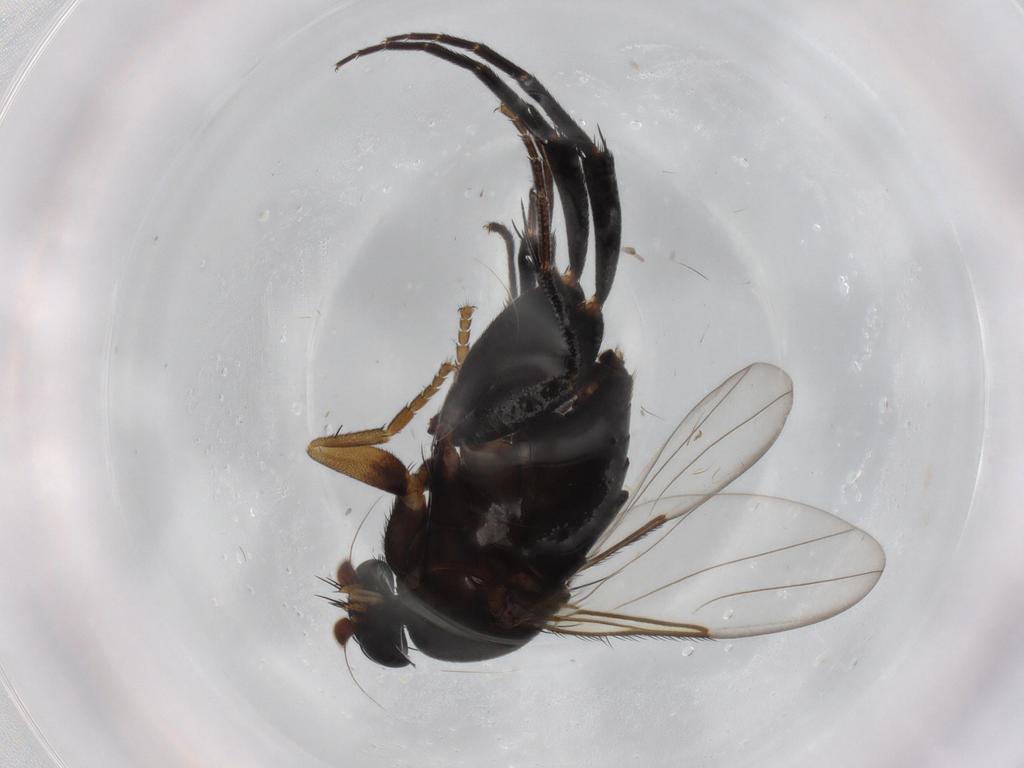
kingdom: Animalia
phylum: Arthropoda
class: Insecta
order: Diptera
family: Phoridae
